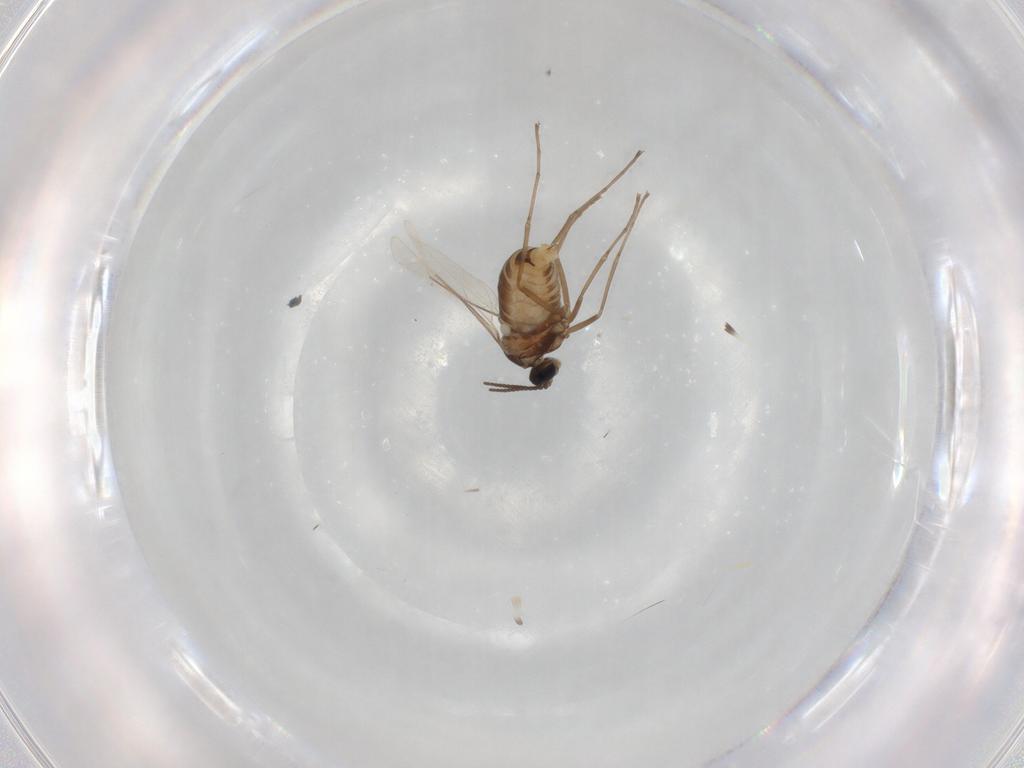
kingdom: Animalia
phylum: Arthropoda
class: Insecta
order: Diptera
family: Cecidomyiidae
